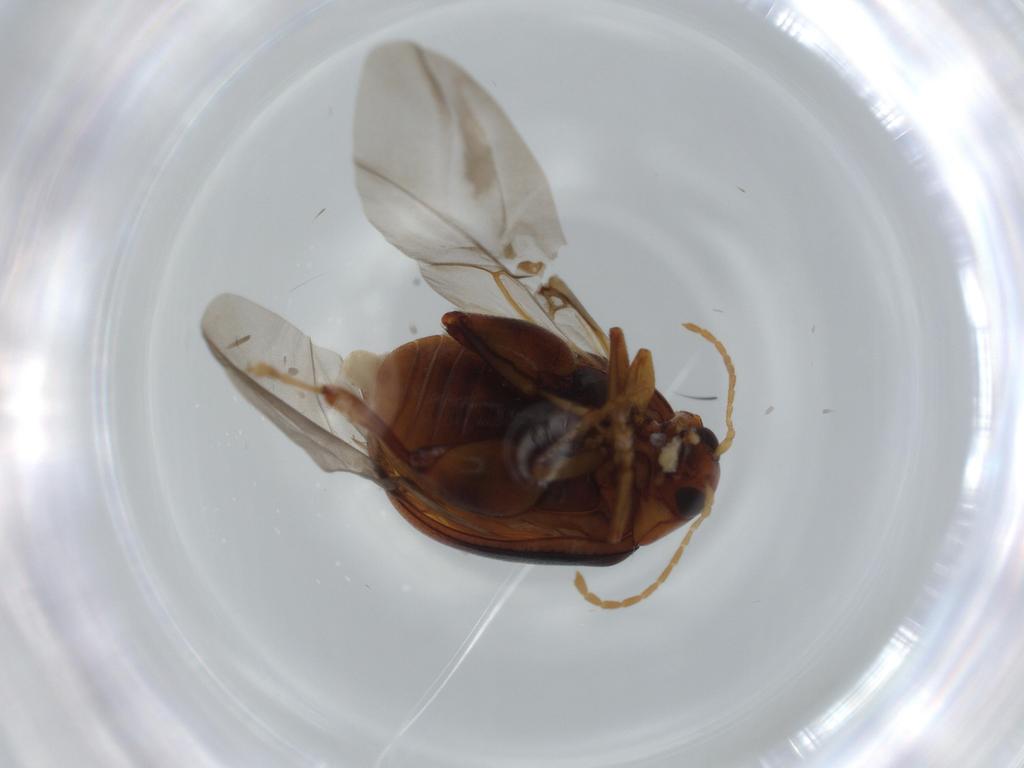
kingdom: Animalia
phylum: Arthropoda
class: Insecta
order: Coleoptera
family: Chrysomelidae
